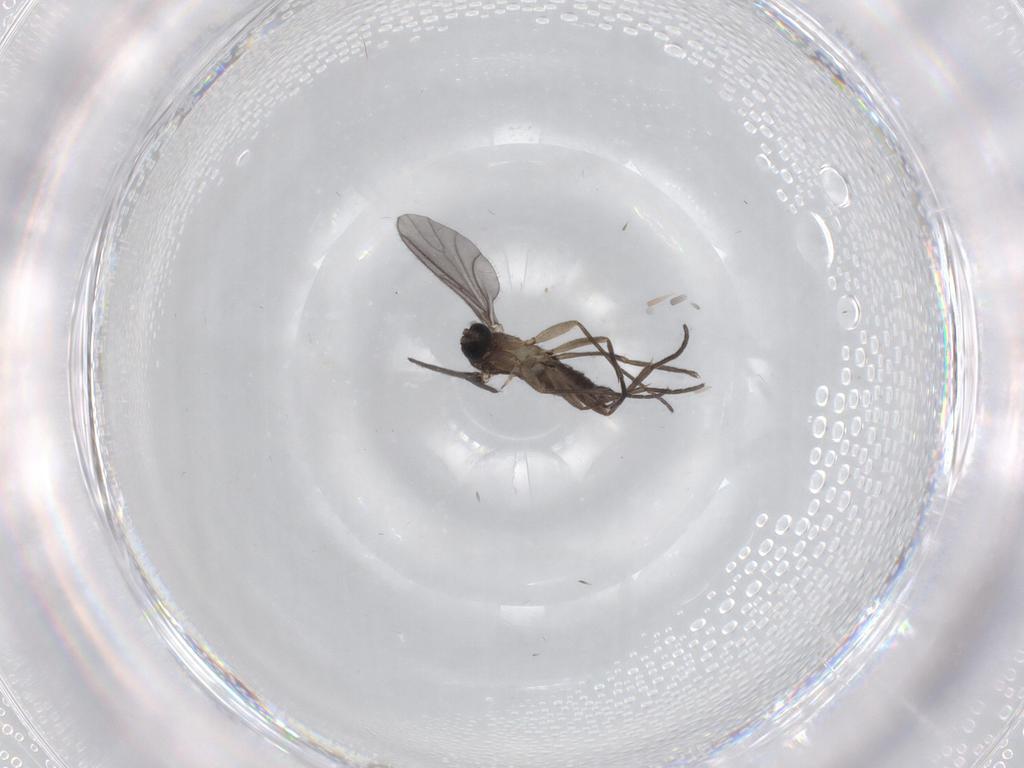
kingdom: Animalia
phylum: Arthropoda
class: Insecta
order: Diptera
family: Sciaridae
